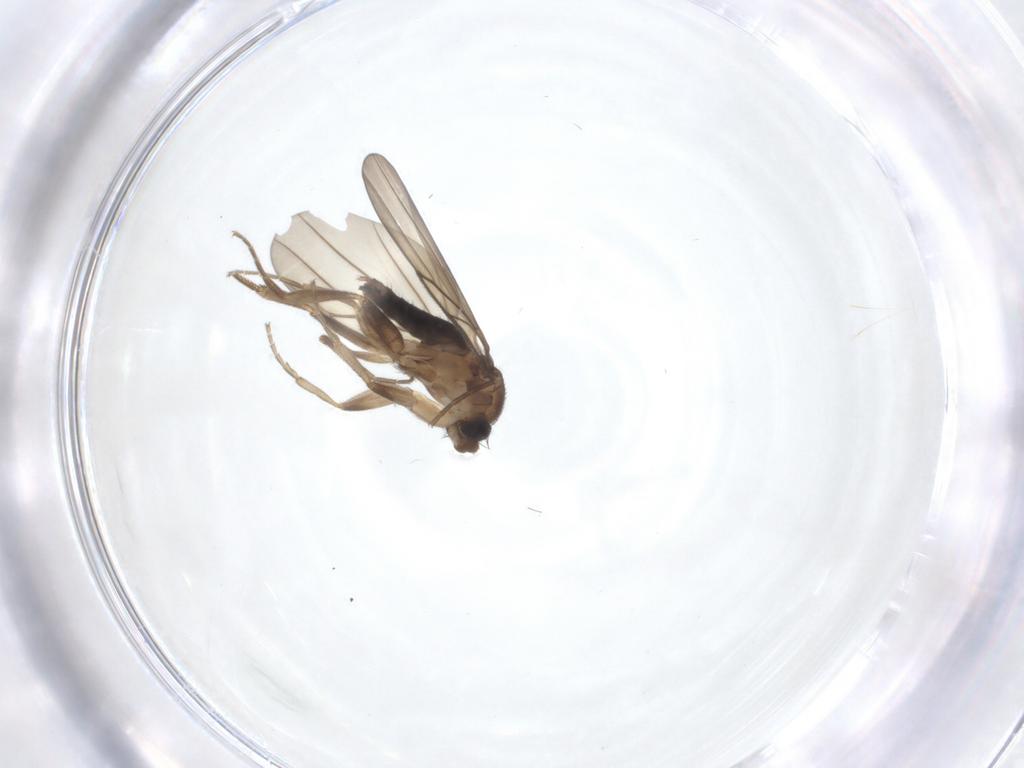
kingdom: Animalia
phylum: Arthropoda
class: Insecta
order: Diptera
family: Phoridae
